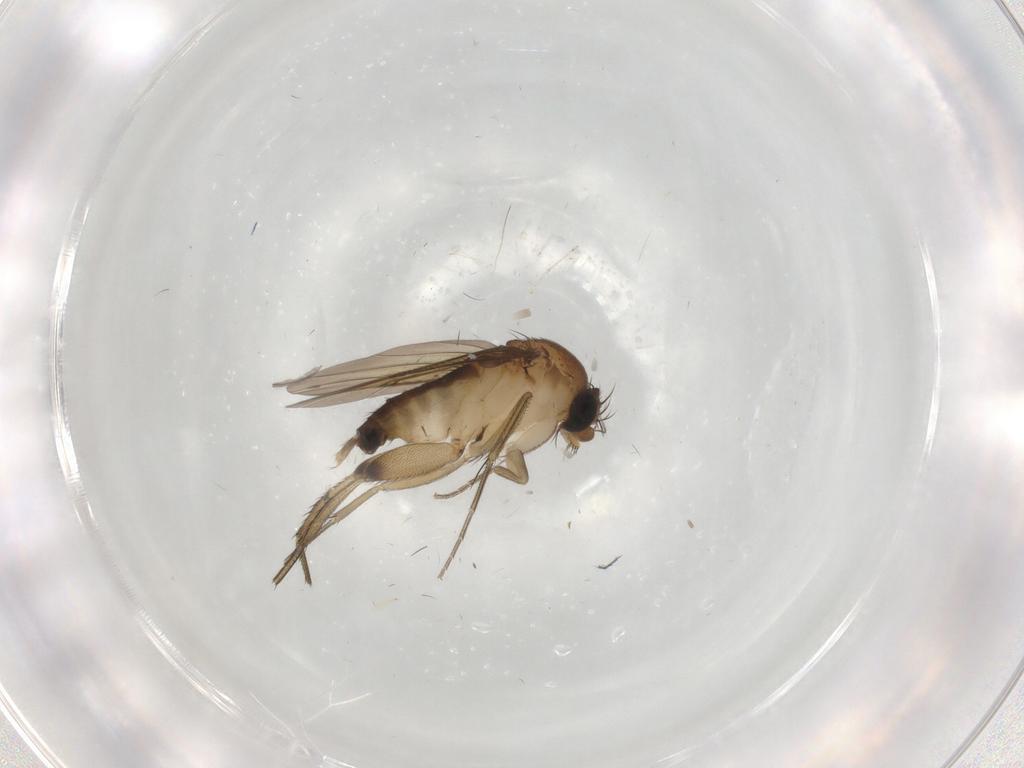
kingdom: Animalia
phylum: Arthropoda
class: Insecta
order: Diptera
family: Phoridae
